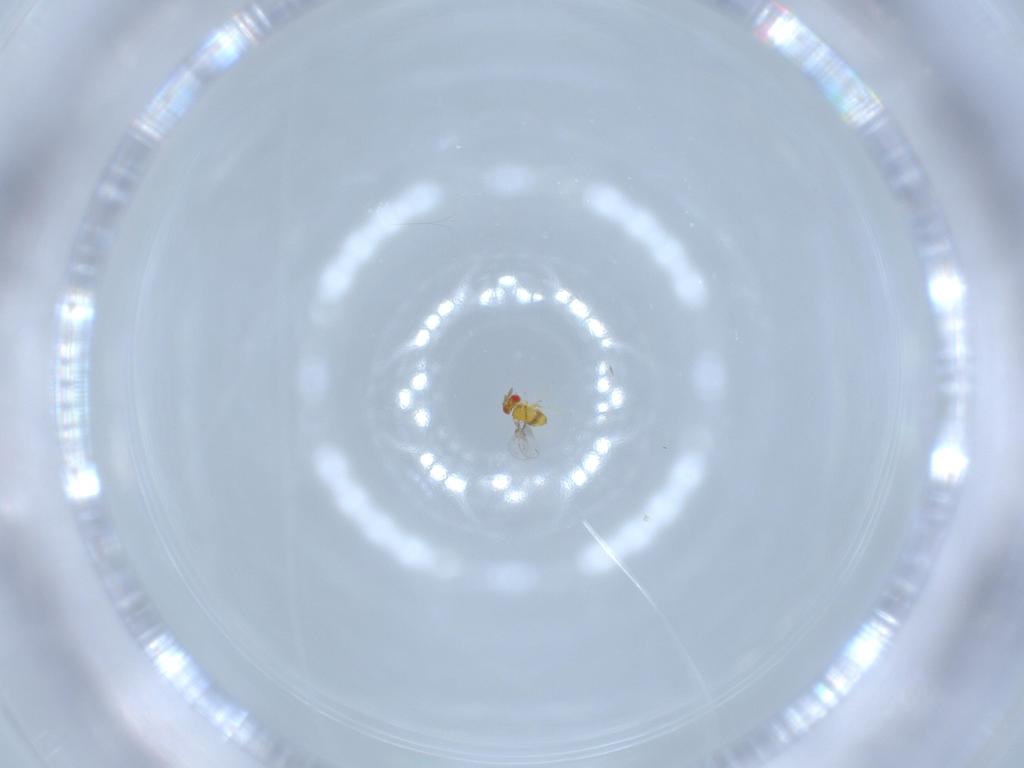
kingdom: Animalia
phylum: Arthropoda
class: Insecta
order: Hymenoptera
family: Trichogrammatidae
